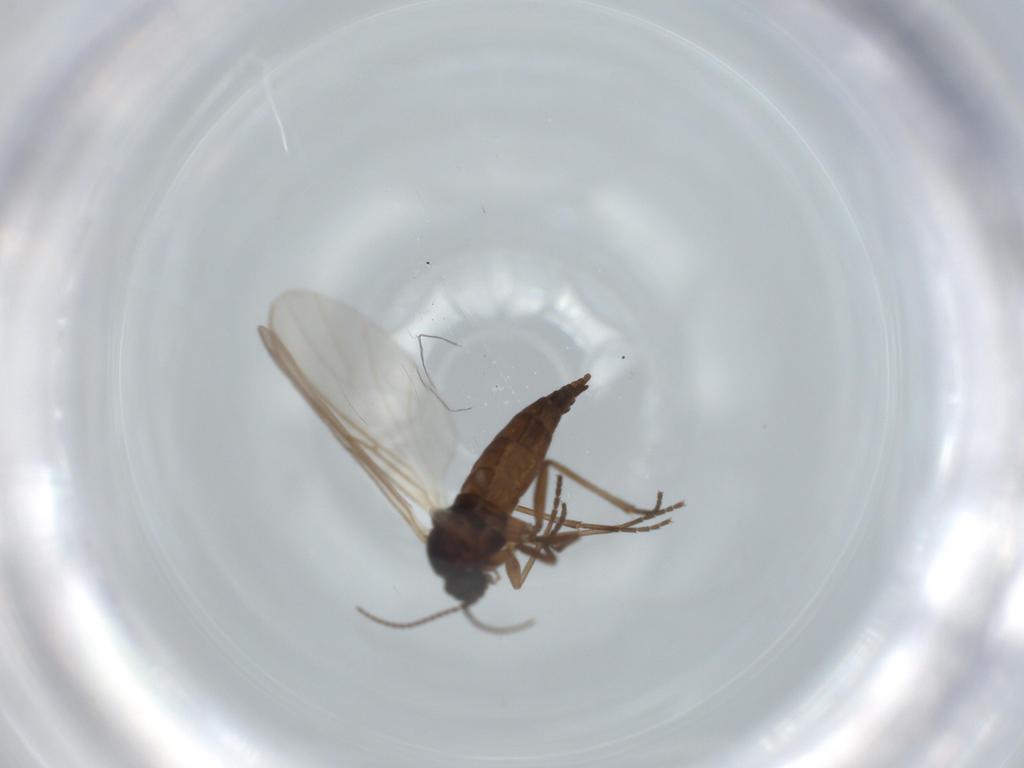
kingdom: Animalia
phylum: Arthropoda
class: Insecta
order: Diptera
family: Sciaridae
